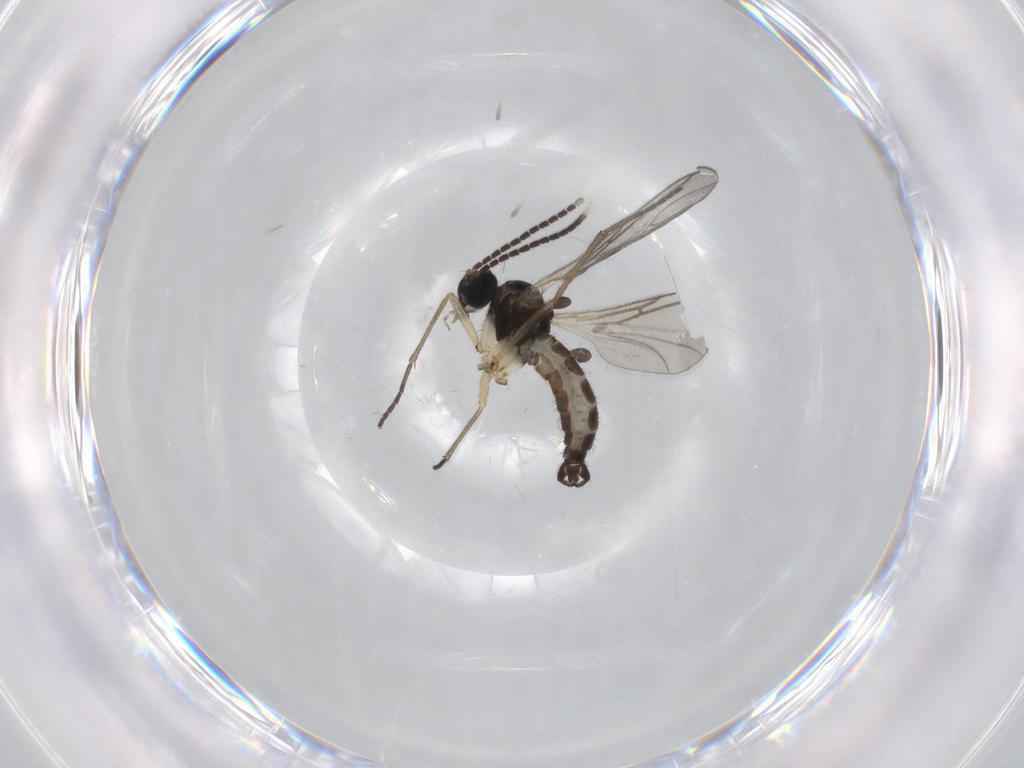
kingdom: Animalia
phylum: Arthropoda
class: Insecta
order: Diptera
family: Sciaridae
